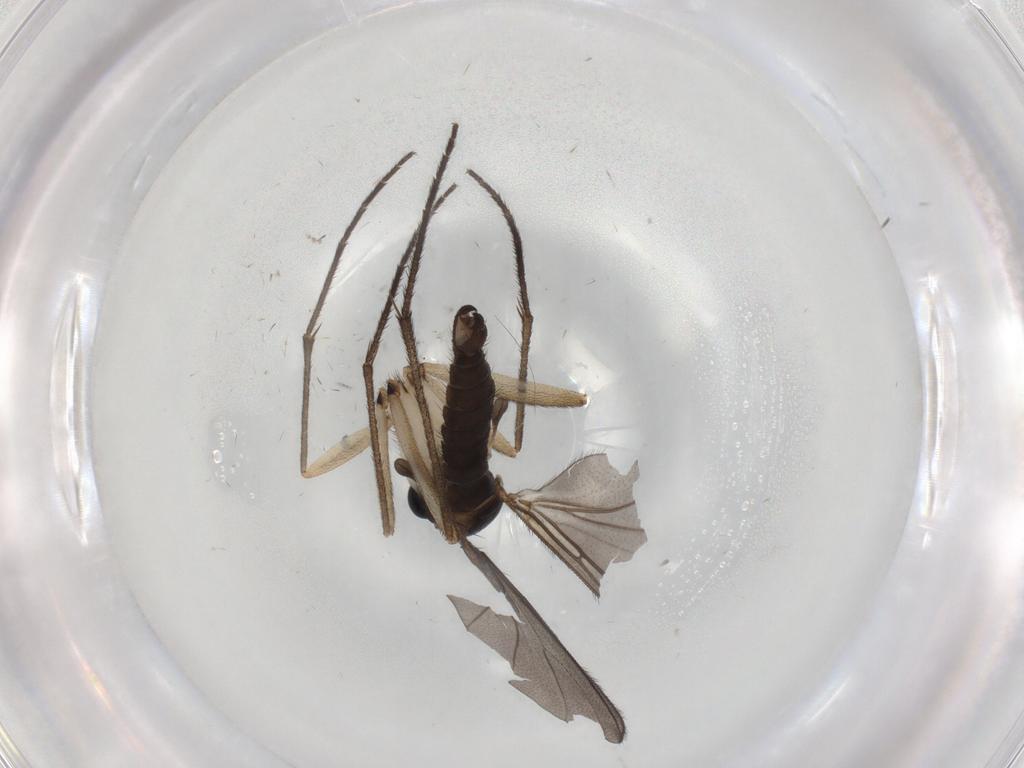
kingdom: Animalia
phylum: Arthropoda
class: Insecta
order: Diptera
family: Sciaridae
